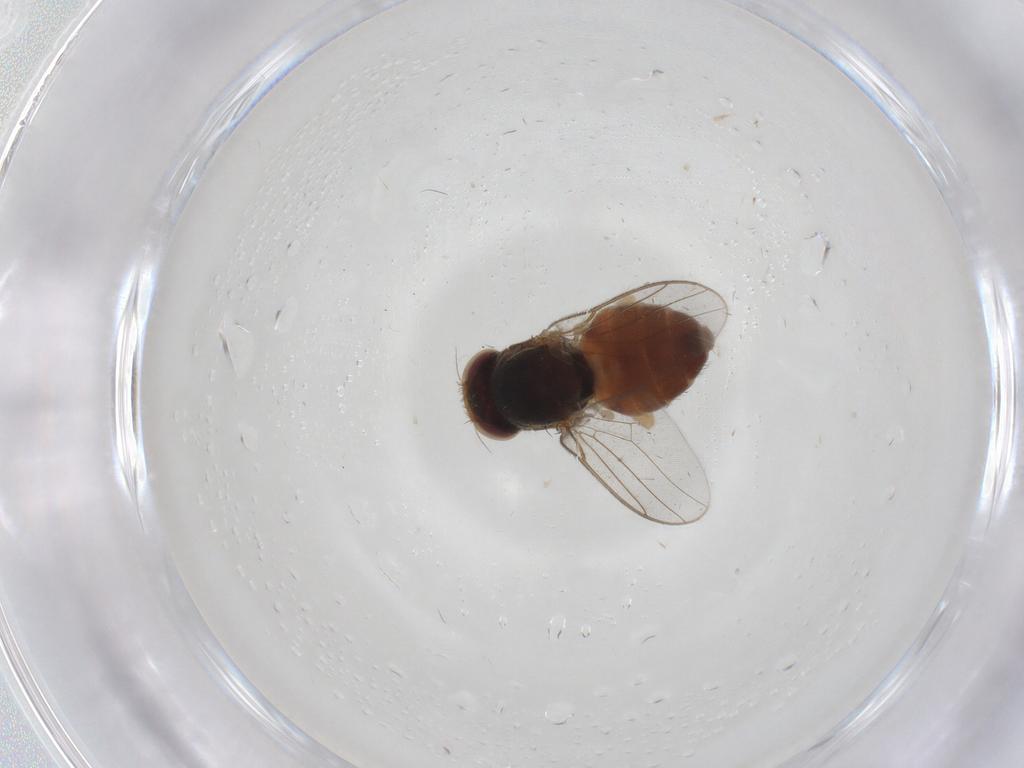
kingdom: Animalia
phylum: Arthropoda
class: Insecta
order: Diptera
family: Chloropidae
